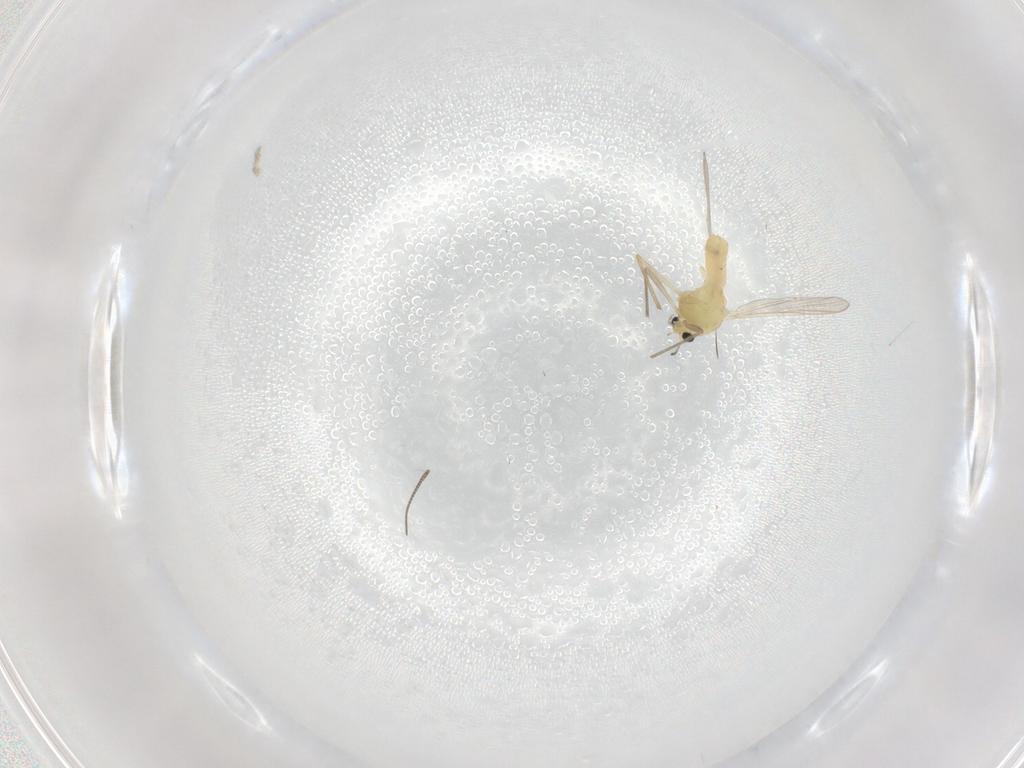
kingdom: Animalia
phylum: Arthropoda
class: Insecta
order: Diptera
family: Chironomidae
